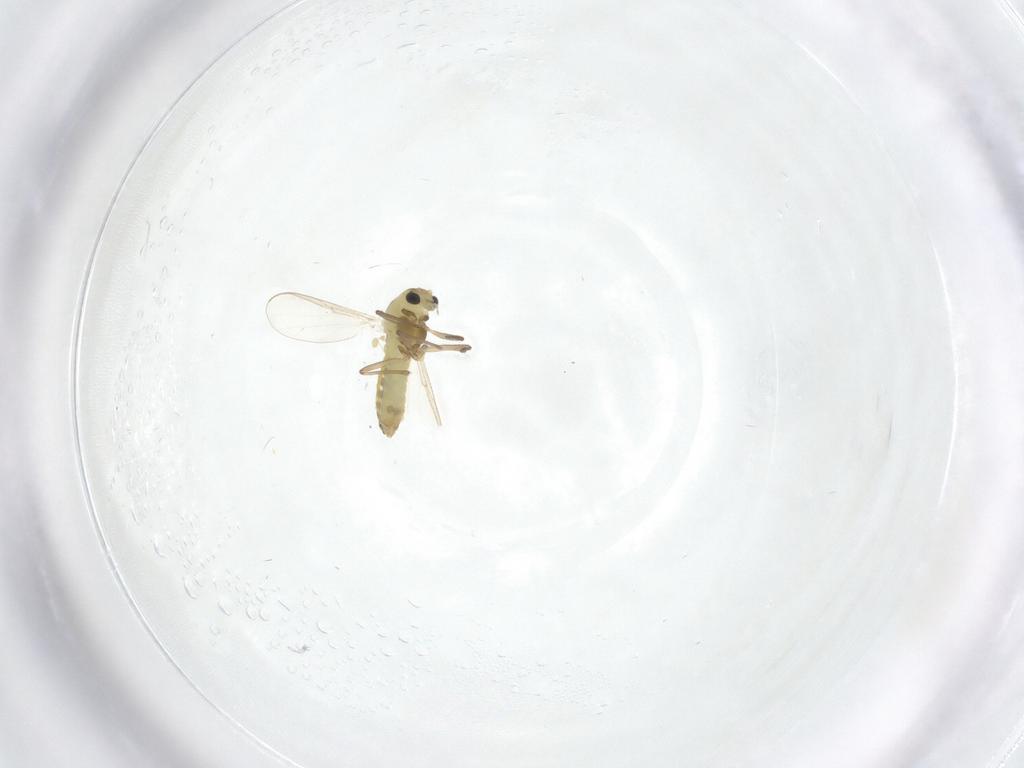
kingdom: Animalia
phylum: Arthropoda
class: Insecta
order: Diptera
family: Chironomidae
